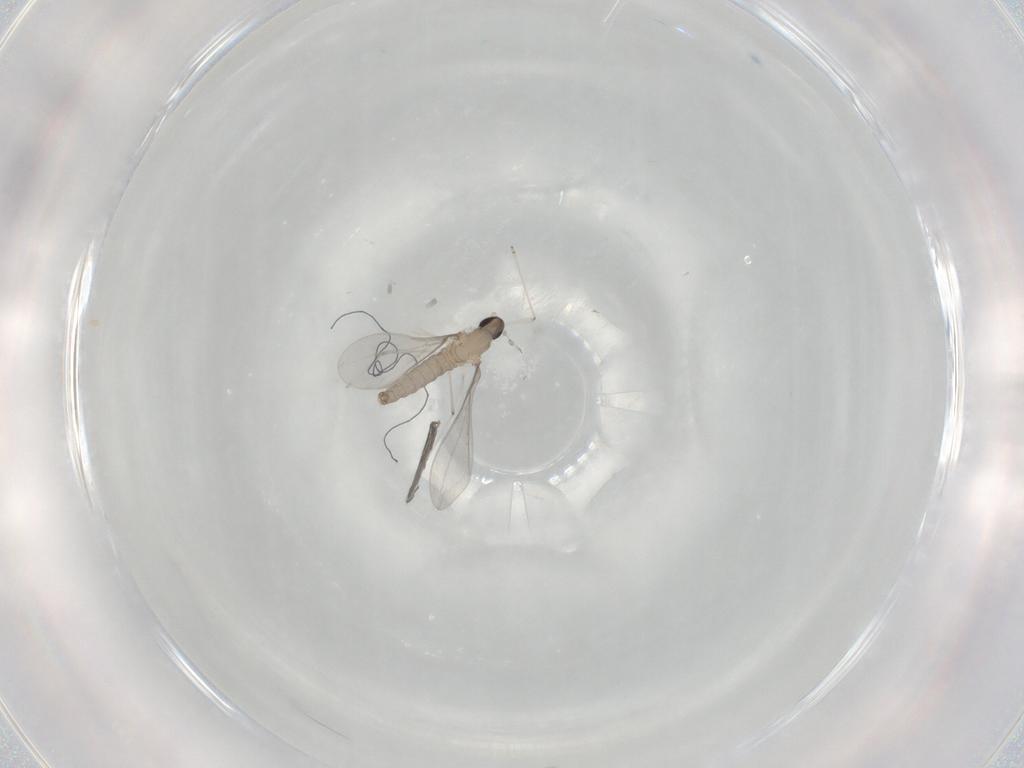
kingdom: Animalia
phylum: Arthropoda
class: Insecta
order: Diptera
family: Cecidomyiidae
